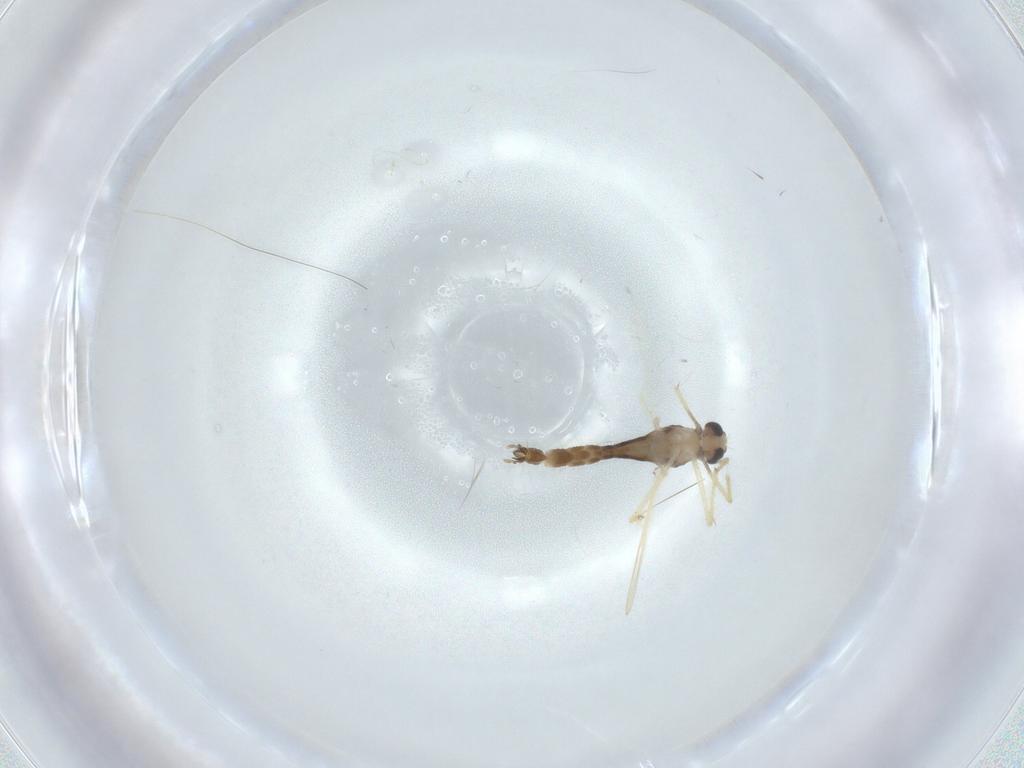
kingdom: Animalia
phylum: Arthropoda
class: Insecta
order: Diptera
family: Chironomidae
